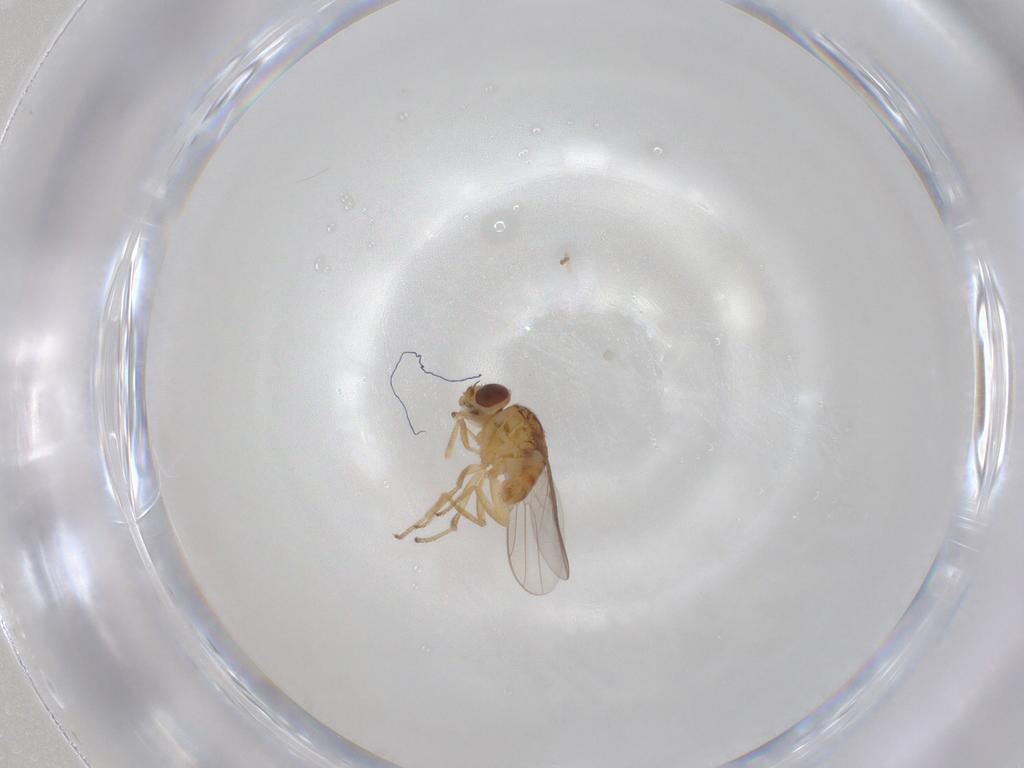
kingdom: Animalia
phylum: Arthropoda
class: Insecta
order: Diptera
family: Chloropidae
